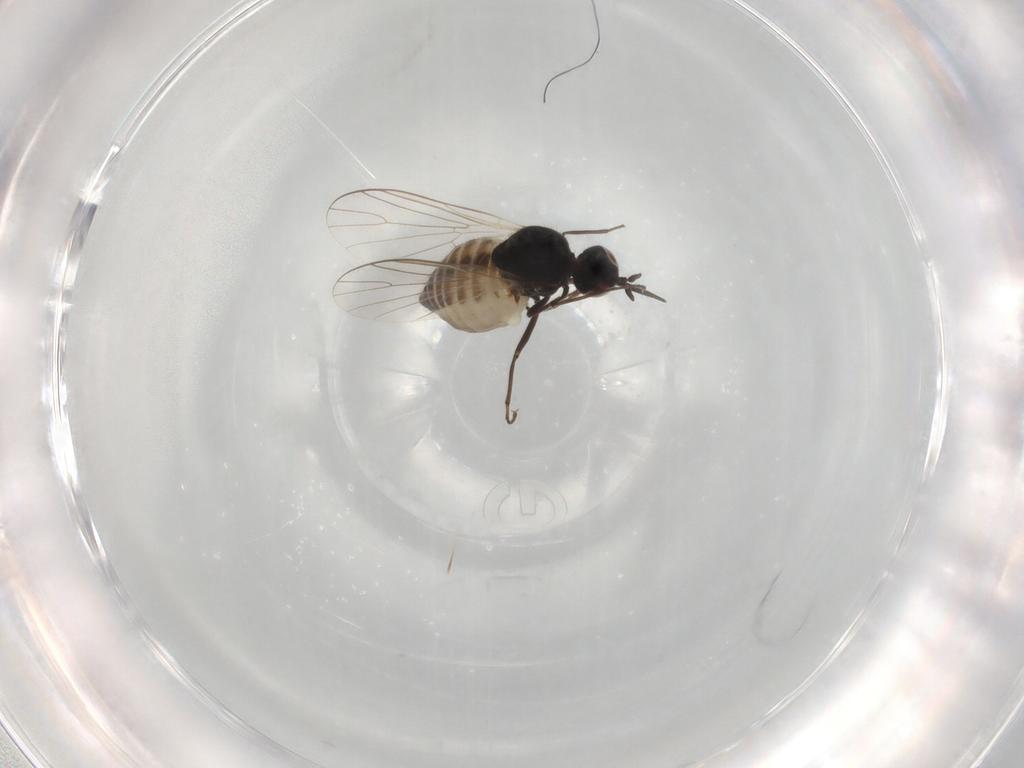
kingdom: Animalia
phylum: Arthropoda
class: Insecta
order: Diptera
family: Bombyliidae
